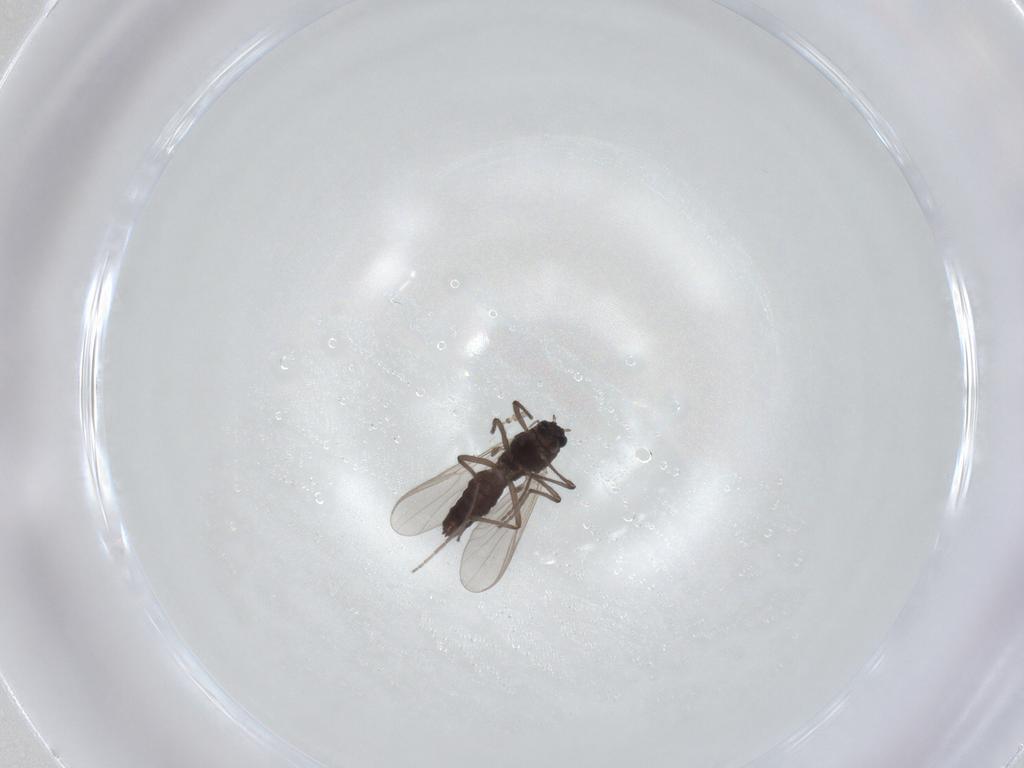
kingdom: Animalia
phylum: Arthropoda
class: Insecta
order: Diptera
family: Chironomidae
